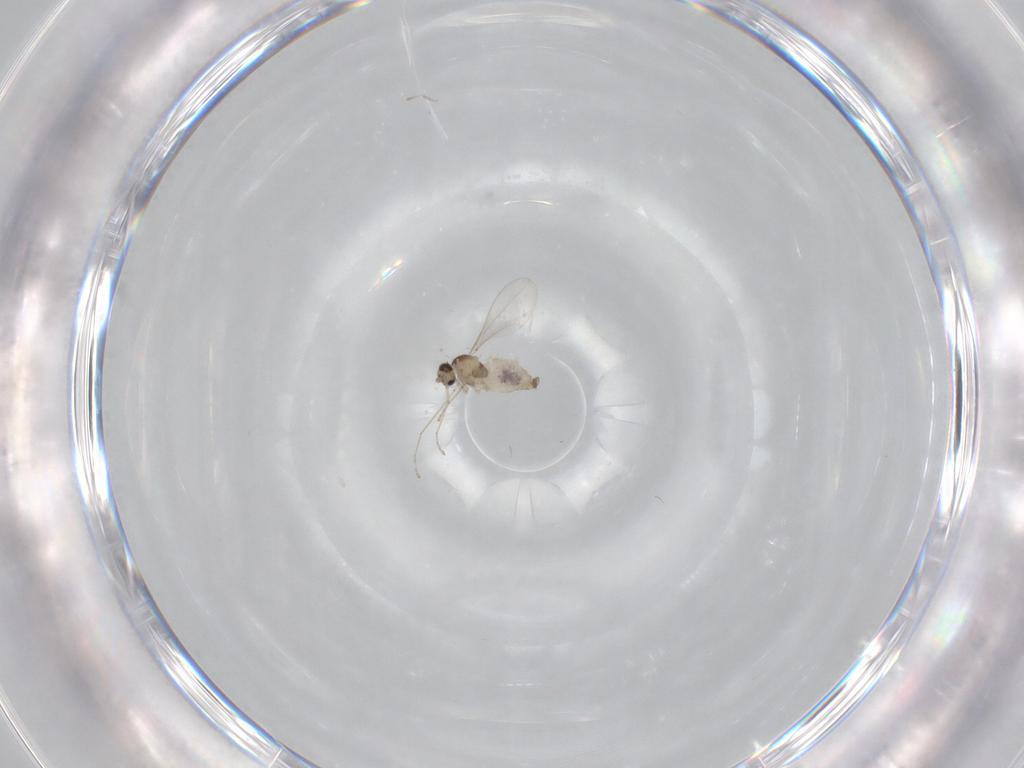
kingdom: Animalia
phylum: Arthropoda
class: Insecta
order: Diptera
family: Cecidomyiidae
